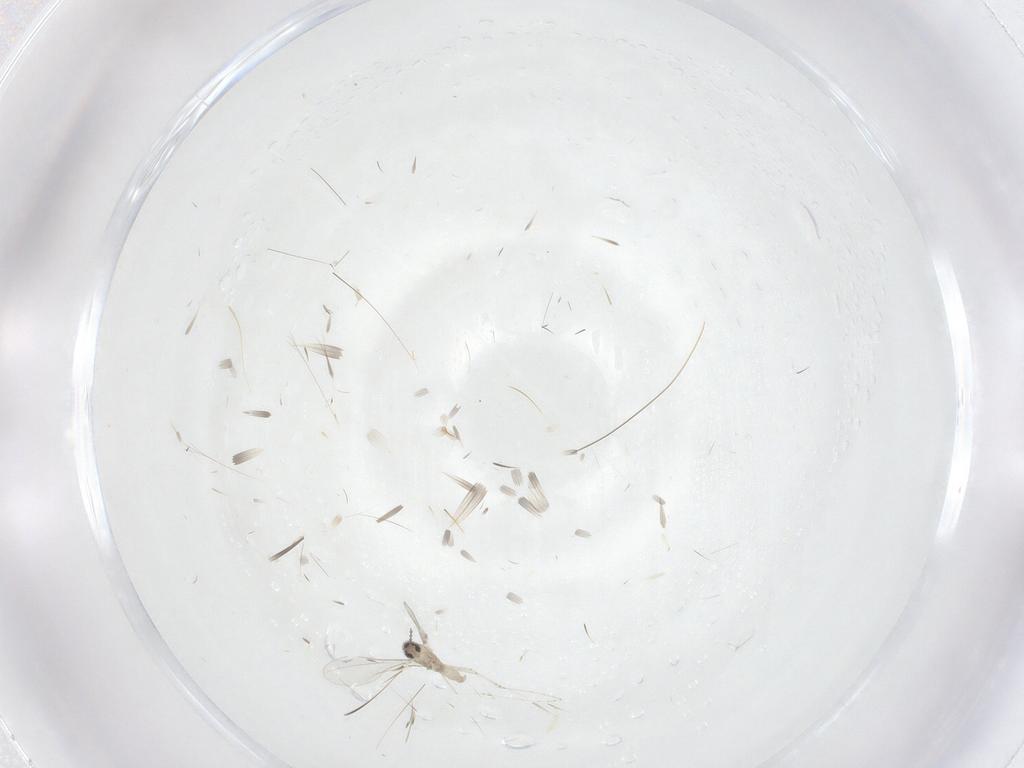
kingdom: Animalia
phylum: Arthropoda
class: Insecta
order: Diptera
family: Cecidomyiidae
